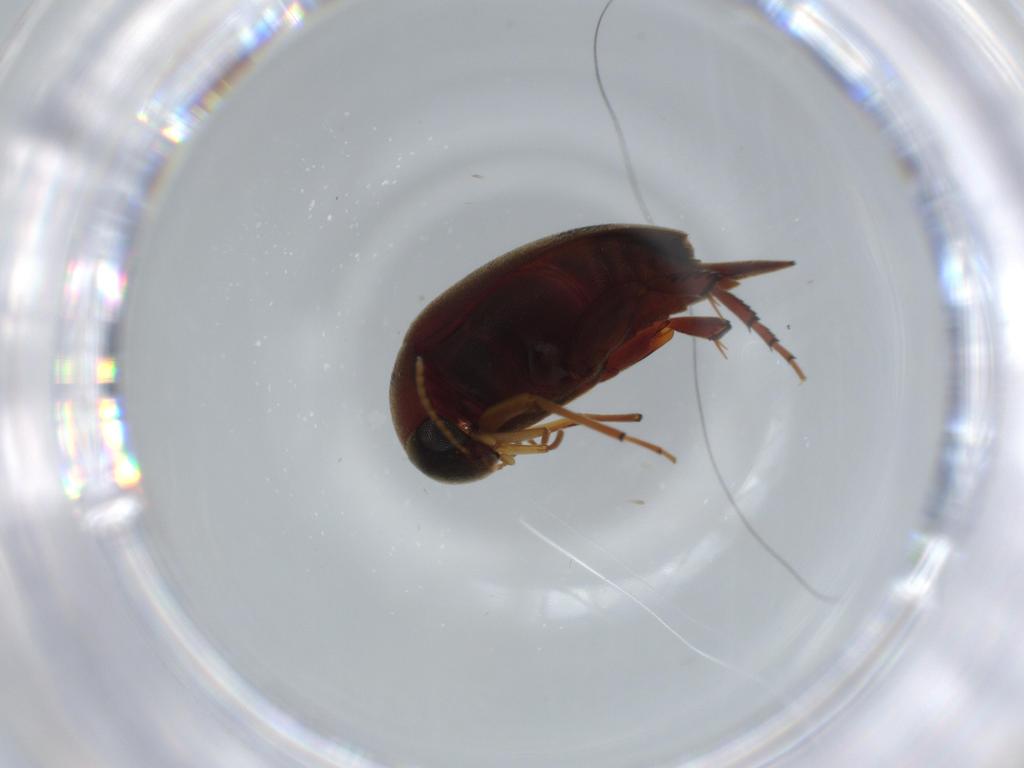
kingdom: Animalia
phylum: Arthropoda
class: Insecta
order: Coleoptera
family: Mordellidae
